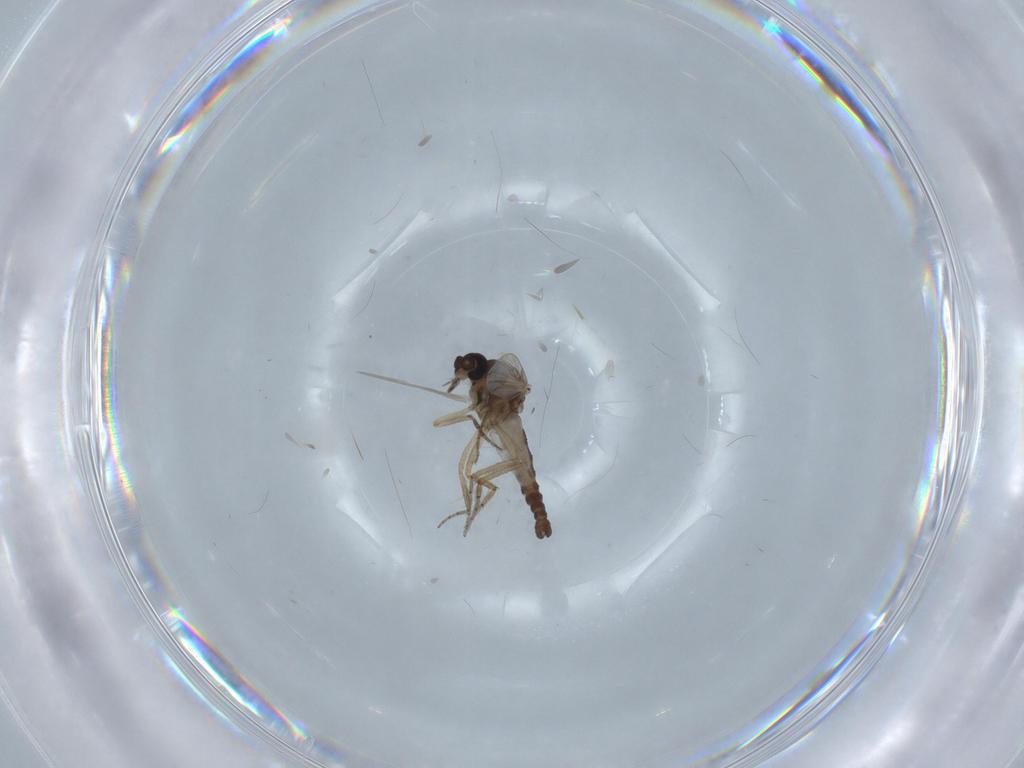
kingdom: Animalia
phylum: Arthropoda
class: Insecta
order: Diptera
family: Ceratopogonidae
